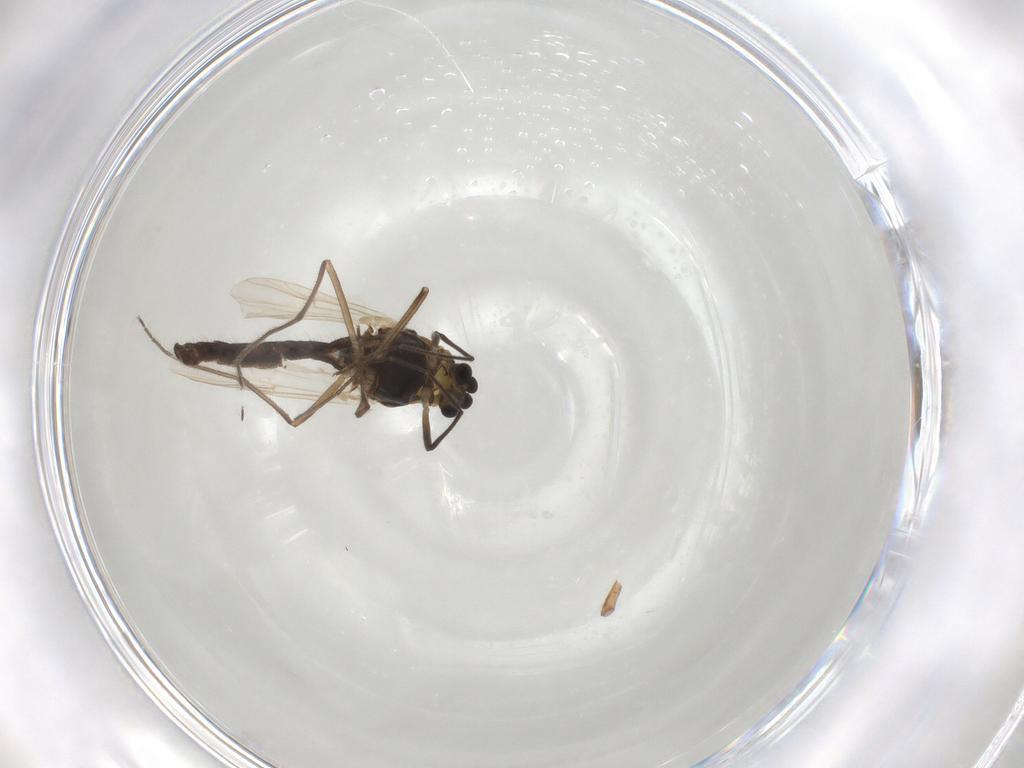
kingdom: Animalia
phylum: Arthropoda
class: Insecta
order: Diptera
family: Chironomidae
